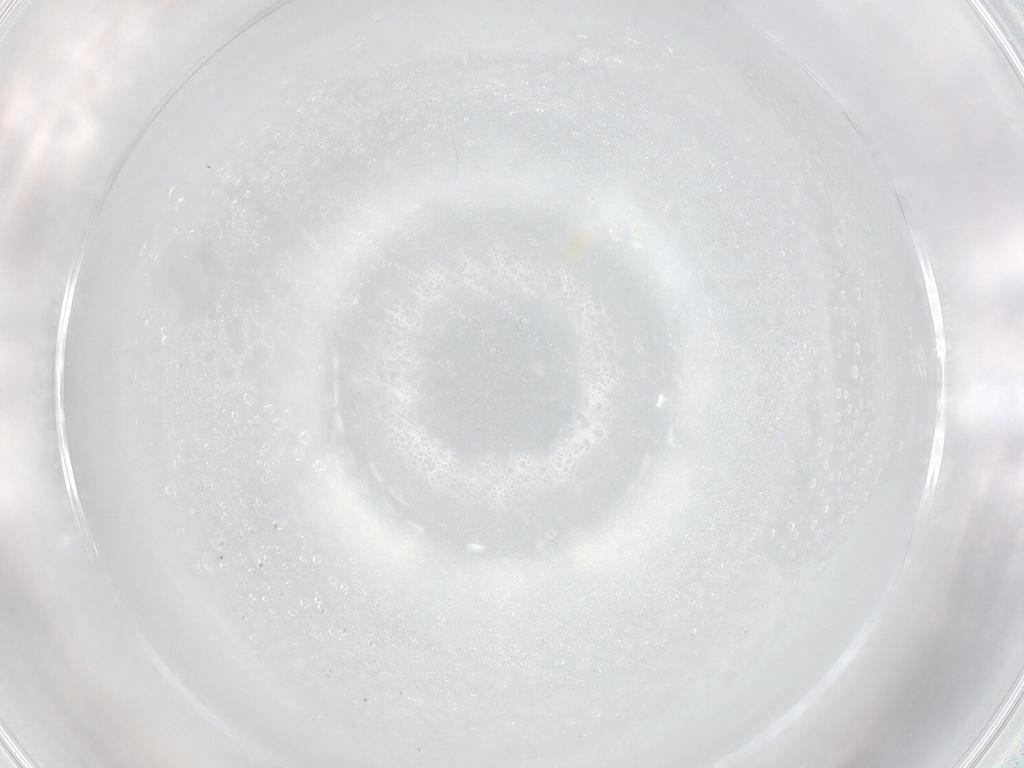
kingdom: Animalia
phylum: Arthropoda
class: Arachnida
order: Trombidiformes
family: Eupodidae
